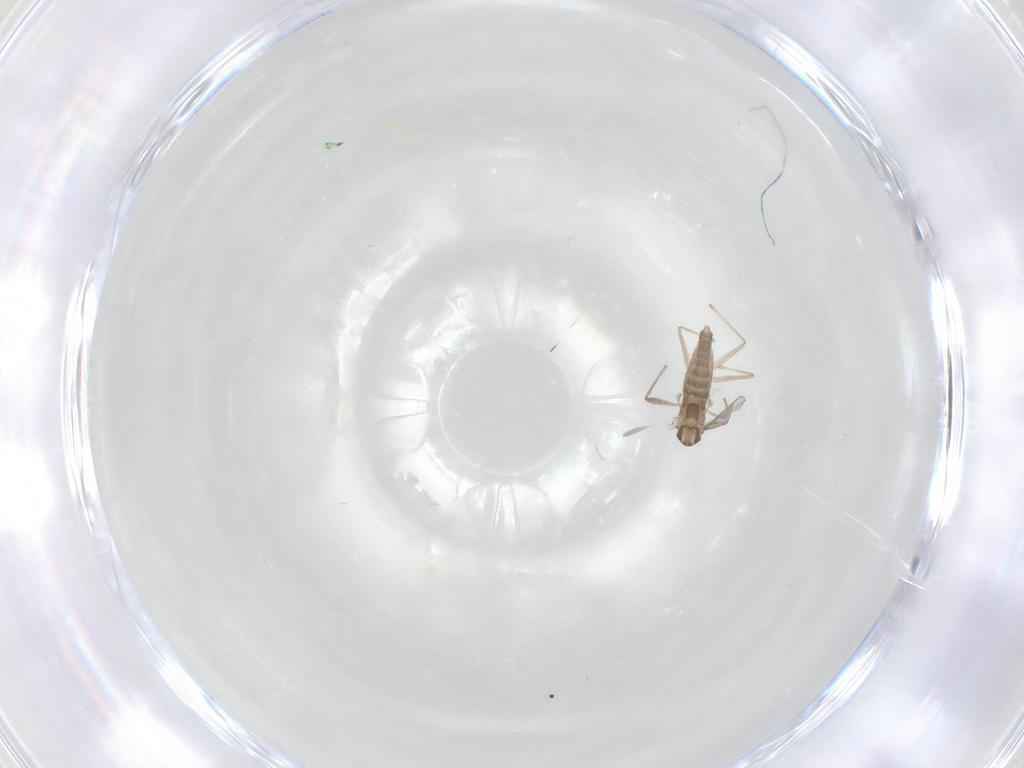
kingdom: Animalia
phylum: Arthropoda
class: Insecta
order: Diptera
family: Chironomidae
